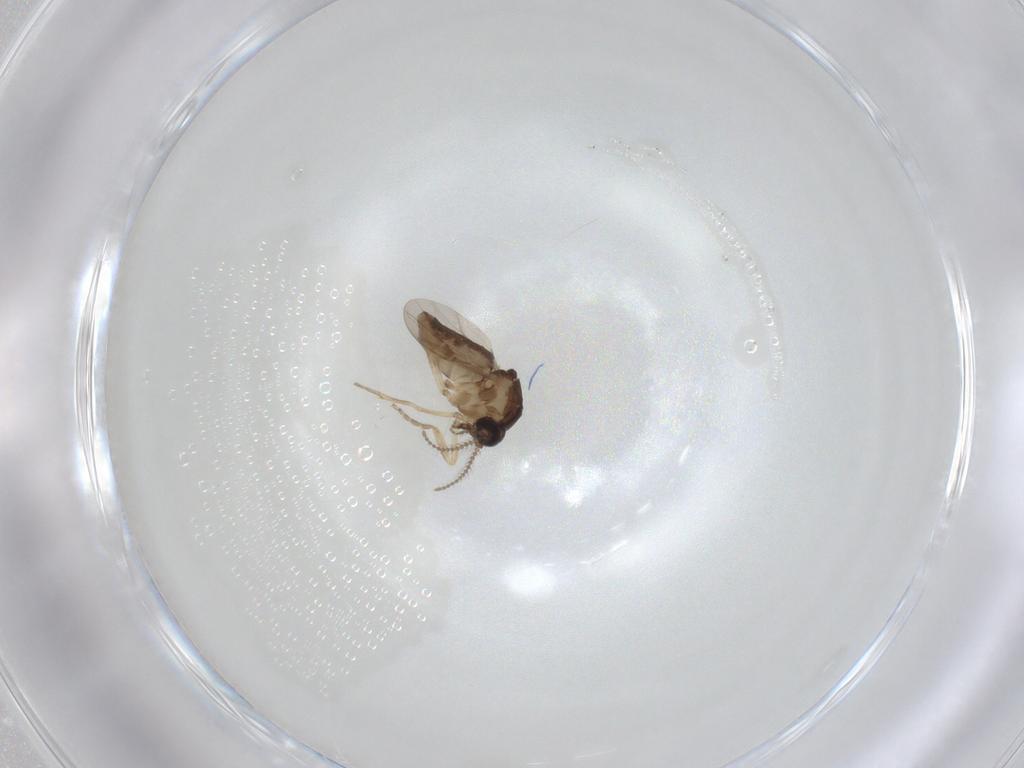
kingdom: Animalia
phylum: Arthropoda
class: Insecta
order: Diptera
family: Ceratopogonidae
